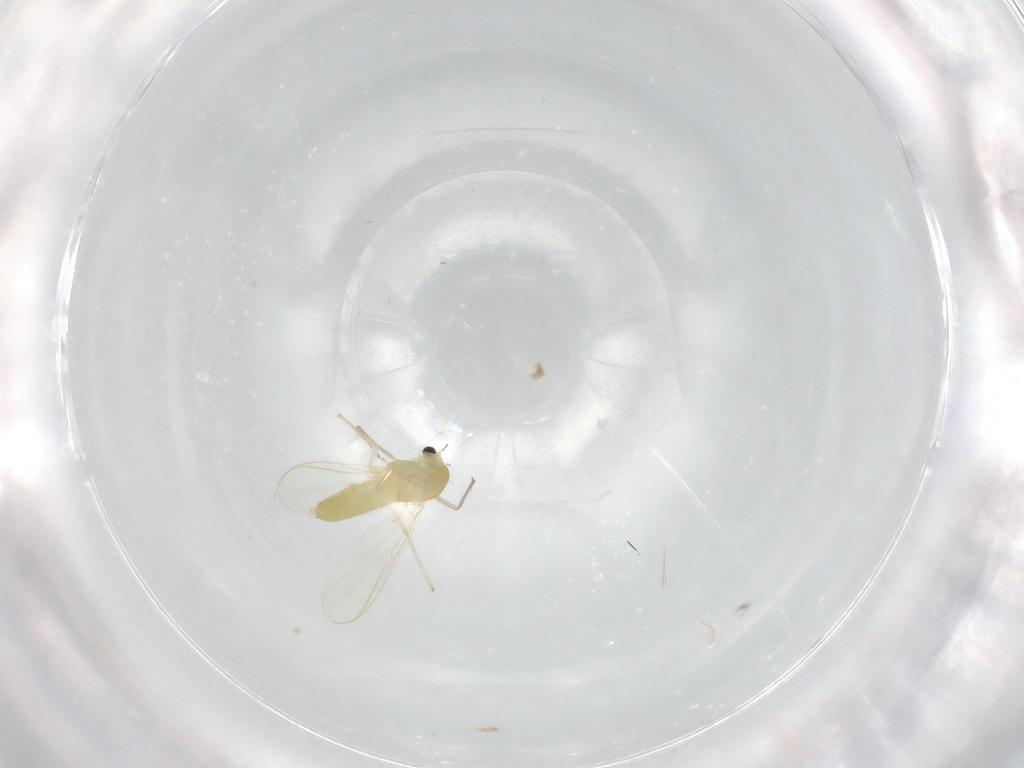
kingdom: Animalia
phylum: Arthropoda
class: Insecta
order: Diptera
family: Chironomidae
